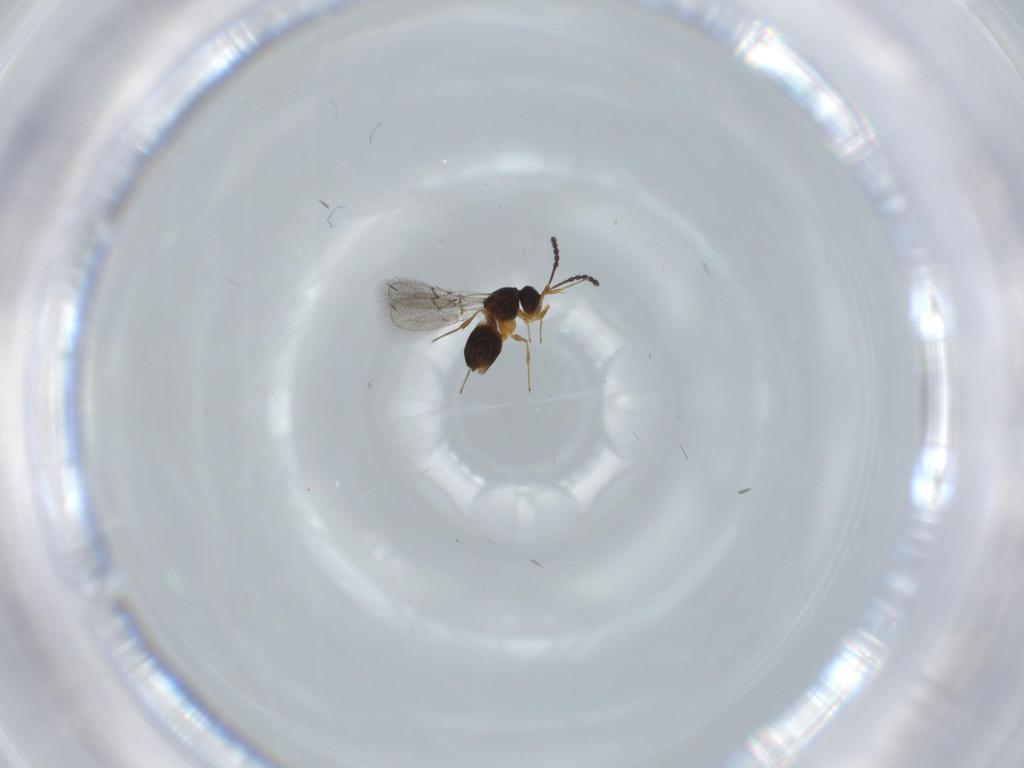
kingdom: Animalia
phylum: Arthropoda
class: Insecta
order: Hymenoptera
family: Figitidae
